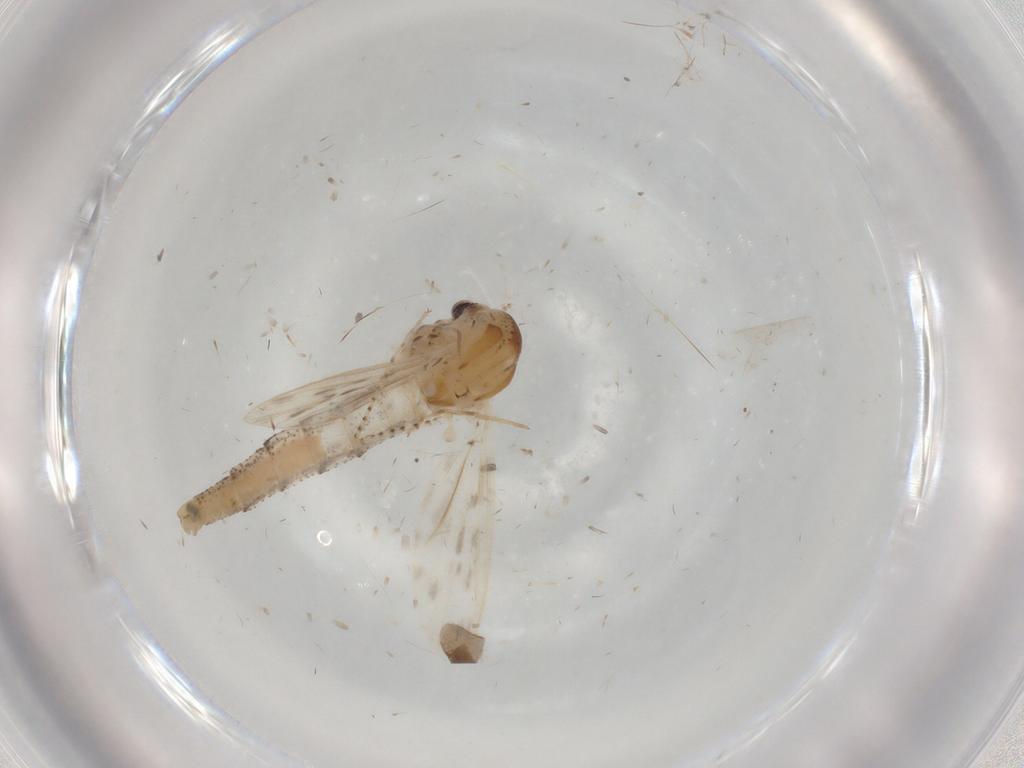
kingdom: Animalia
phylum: Arthropoda
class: Insecta
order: Diptera
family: Chaoboridae
